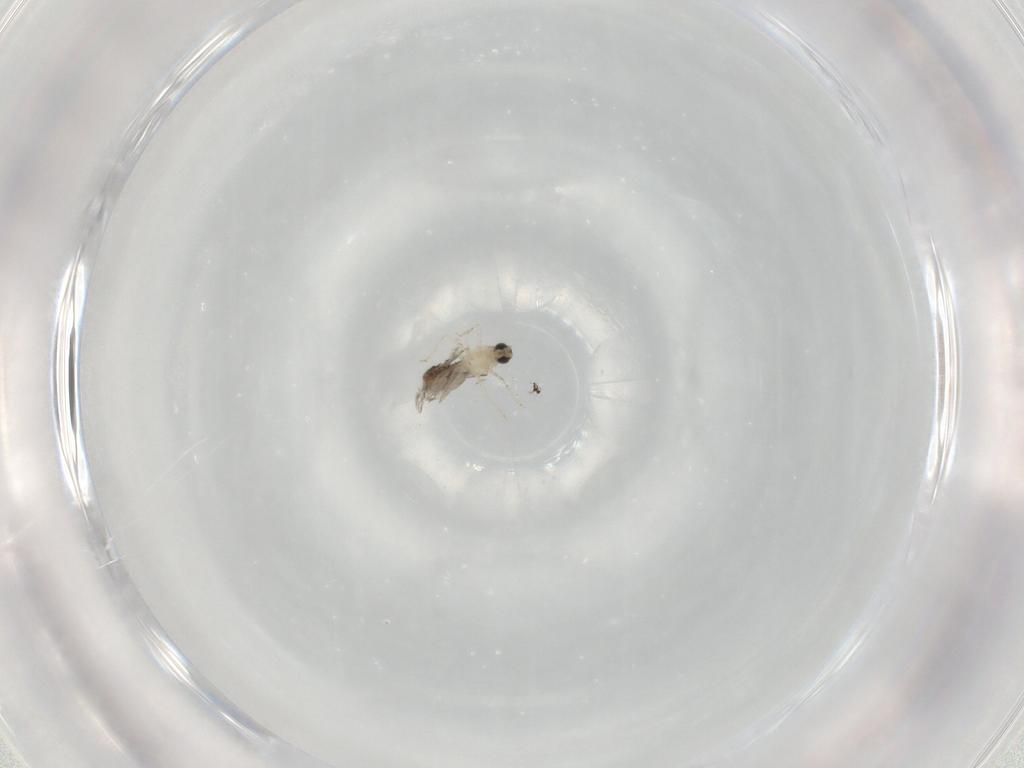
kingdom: Animalia
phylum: Arthropoda
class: Insecta
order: Diptera
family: Cecidomyiidae
